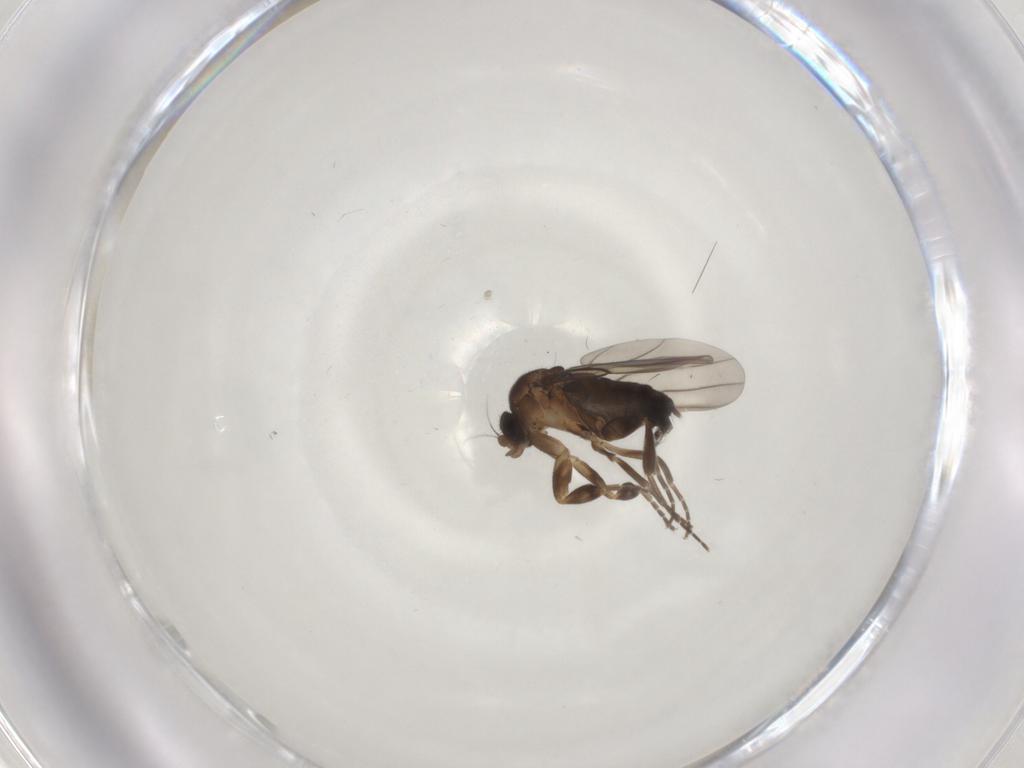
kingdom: Animalia
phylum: Arthropoda
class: Insecta
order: Diptera
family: Phoridae
